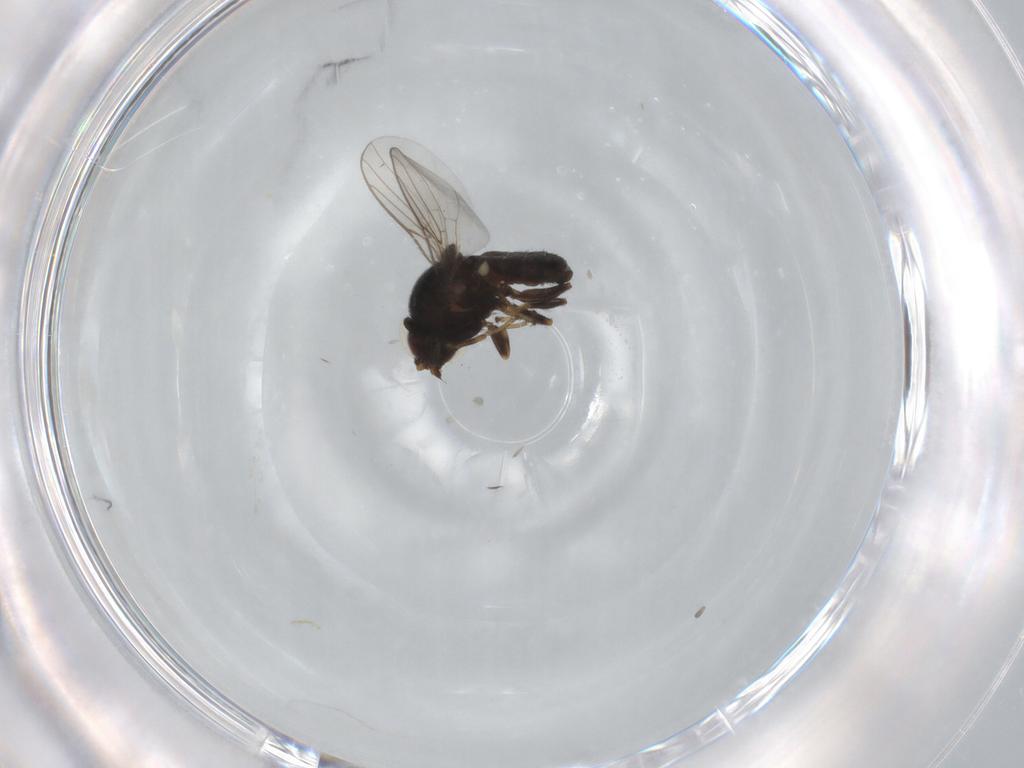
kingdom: Animalia
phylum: Arthropoda
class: Insecta
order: Diptera
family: Chloropidae
